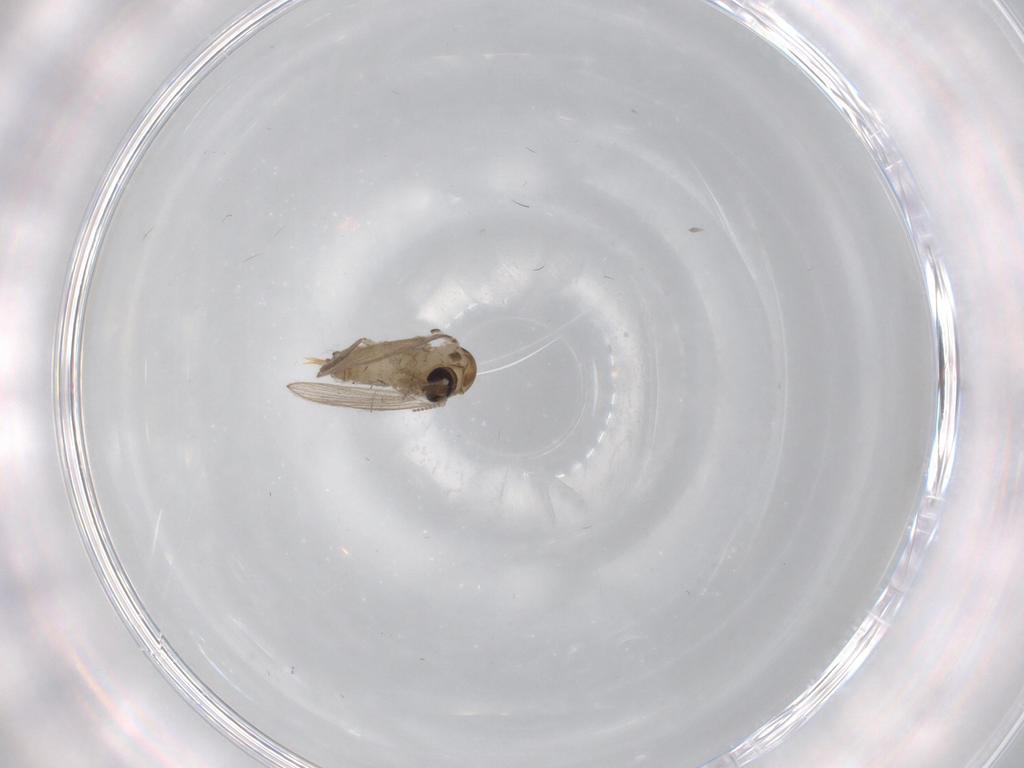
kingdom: Animalia
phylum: Arthropoda
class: Insecta
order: Diptera
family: Psychodidae
